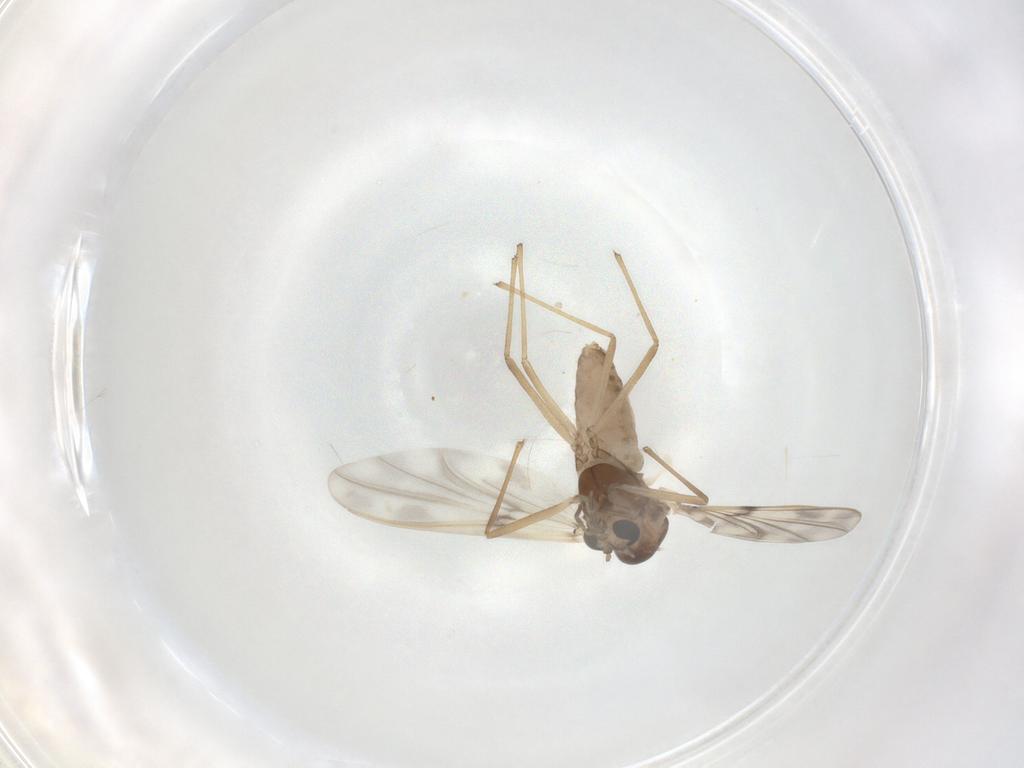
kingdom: Animalia
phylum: Arthropoda
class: Insecta
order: Diptera
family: Chironomidae
